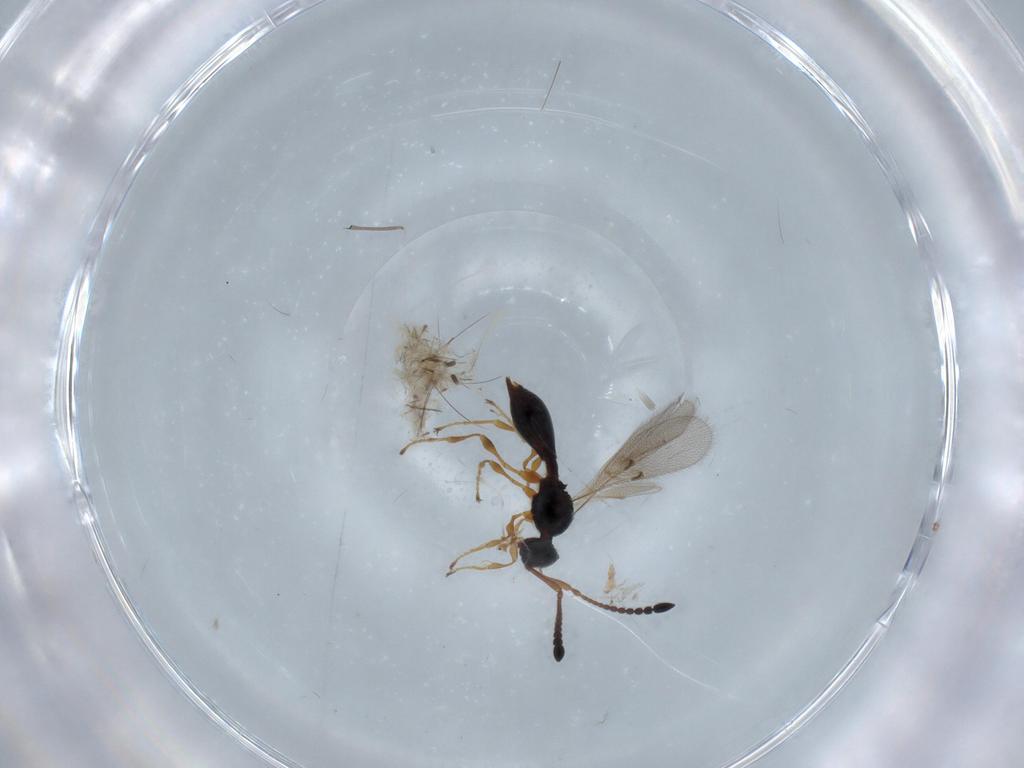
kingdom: Animalia
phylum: Arthropoda
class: Insecta
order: Hymenoptera
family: Diapriidae
